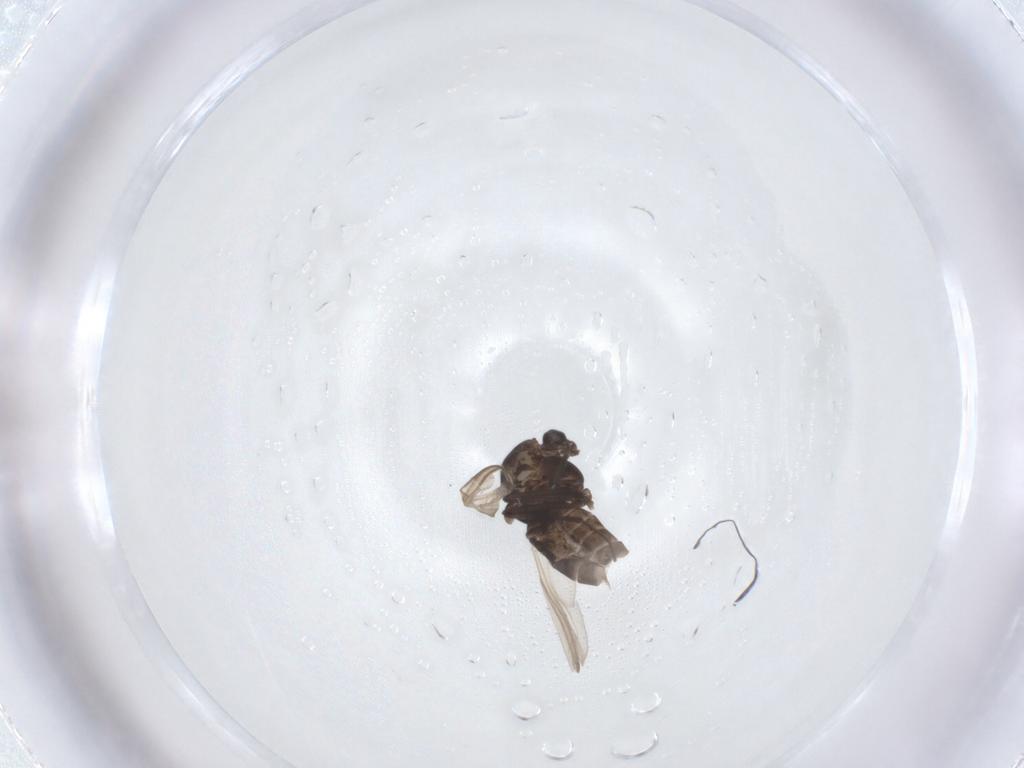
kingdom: Animalia
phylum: Arthropoda
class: Insecta
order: Diptera
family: Chironomidae
